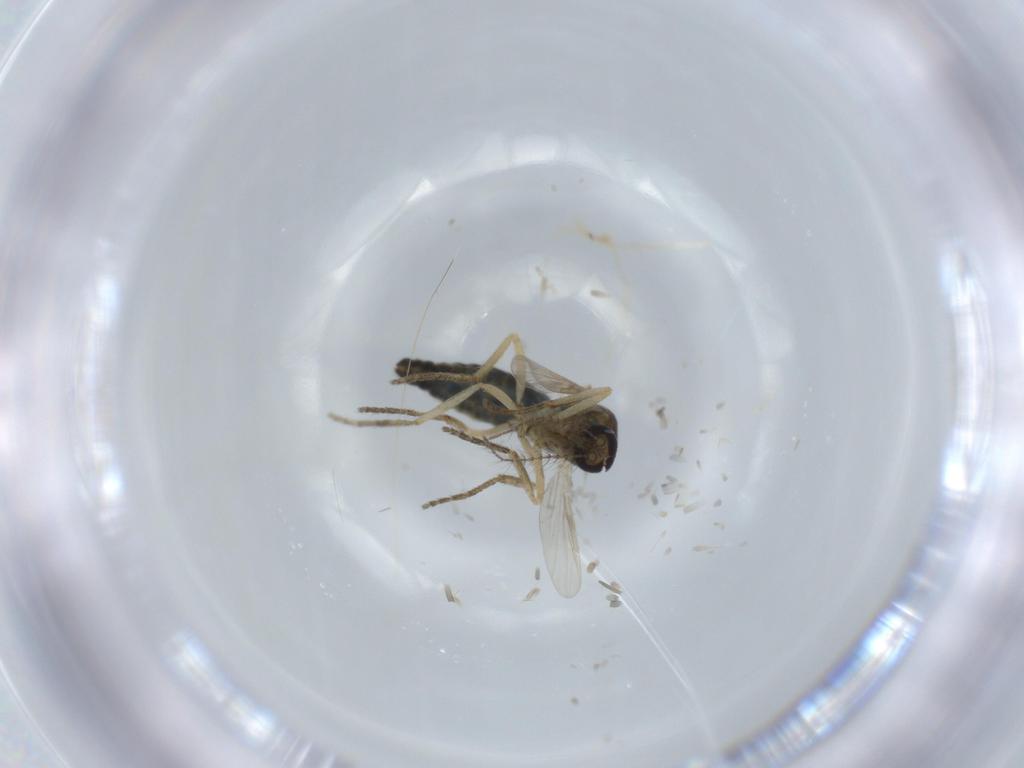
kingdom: Animalia
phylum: Arthropoda
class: Insecta
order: Diptera
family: Ceratopogonidae
